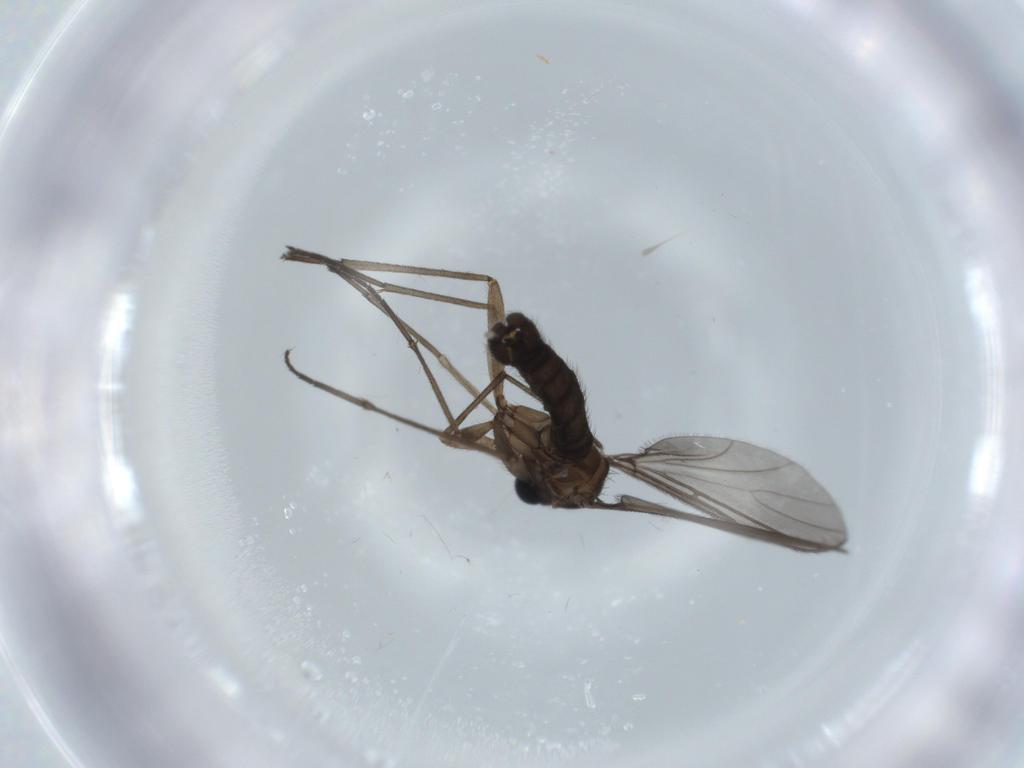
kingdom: Animalia
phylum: Arthropoda
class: Insecta
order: Diptera
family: Sciaridae
